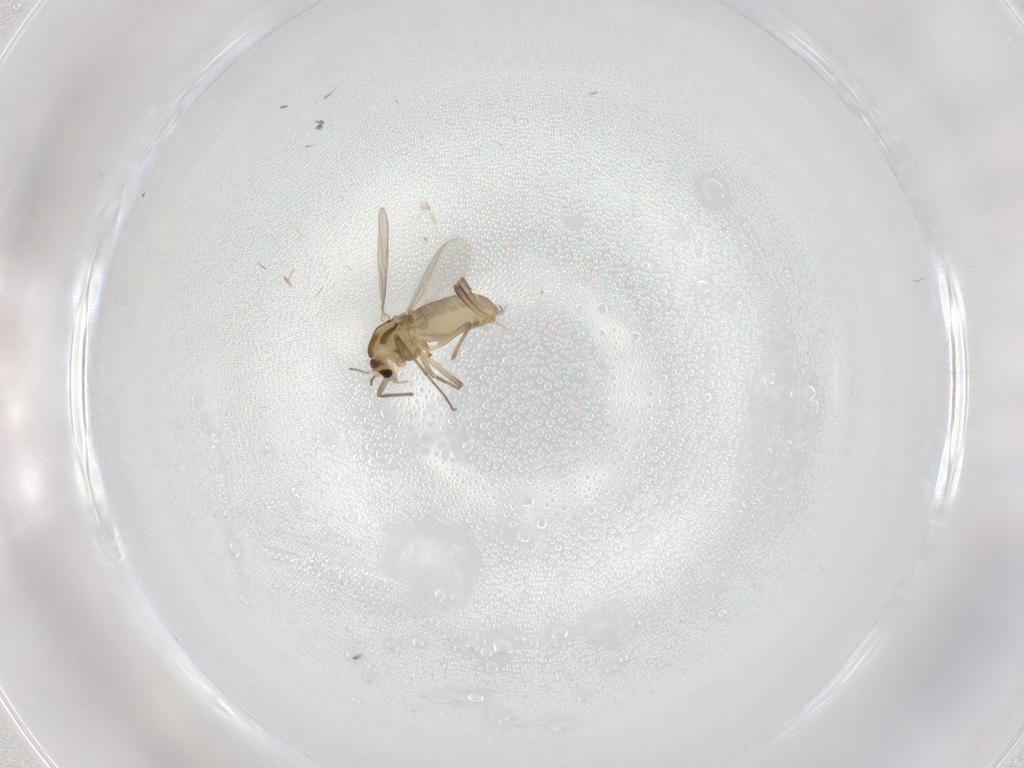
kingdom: Animalia
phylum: Arthropoda
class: Insecta
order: Diptera
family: Chironomidae
